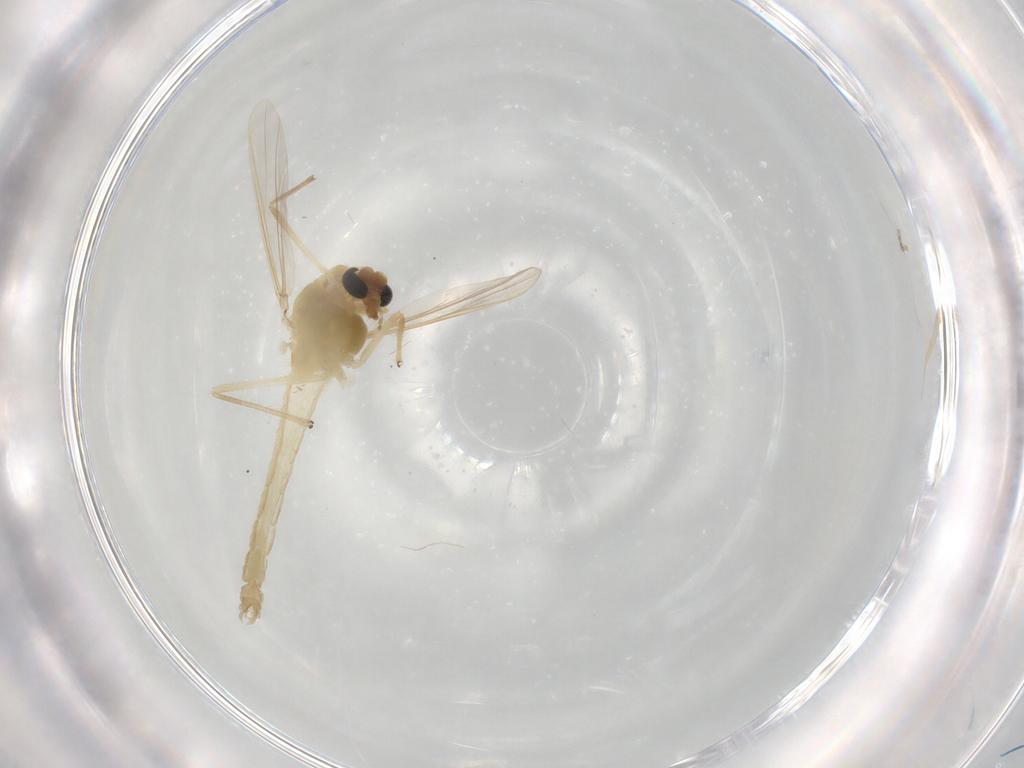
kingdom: Animalia
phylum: Arthropoda
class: Insecta
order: Diptera
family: Chironomidae
